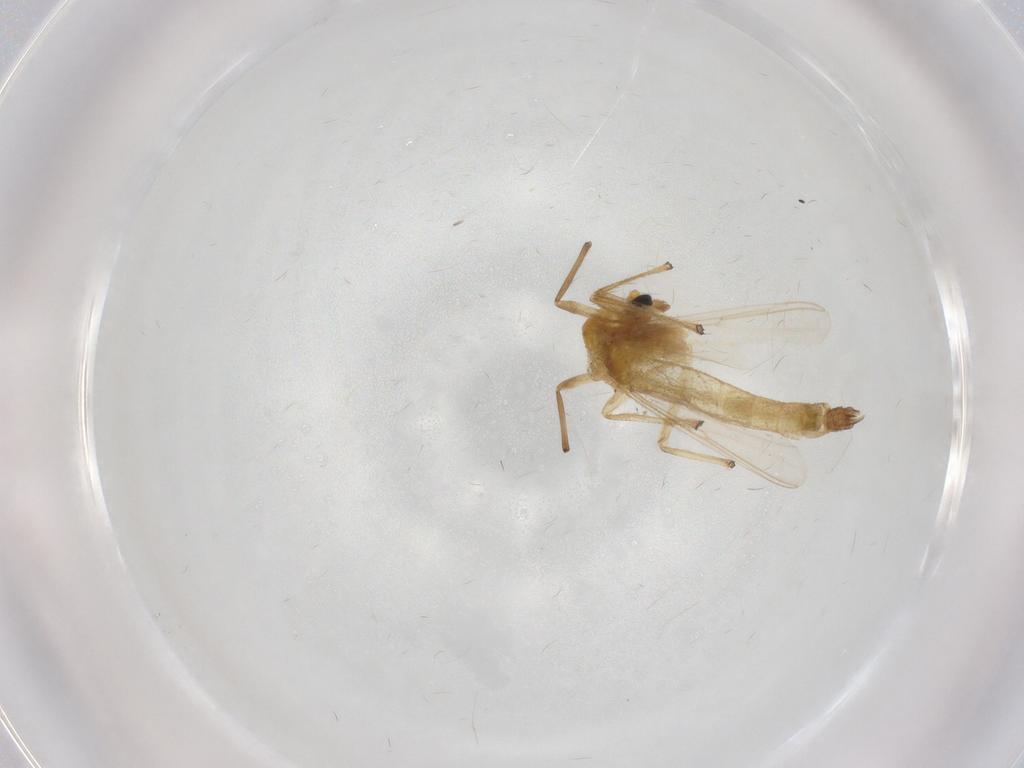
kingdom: Animalia
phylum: Arthropoda
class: Insecta
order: Diptera
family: Chironomidae
